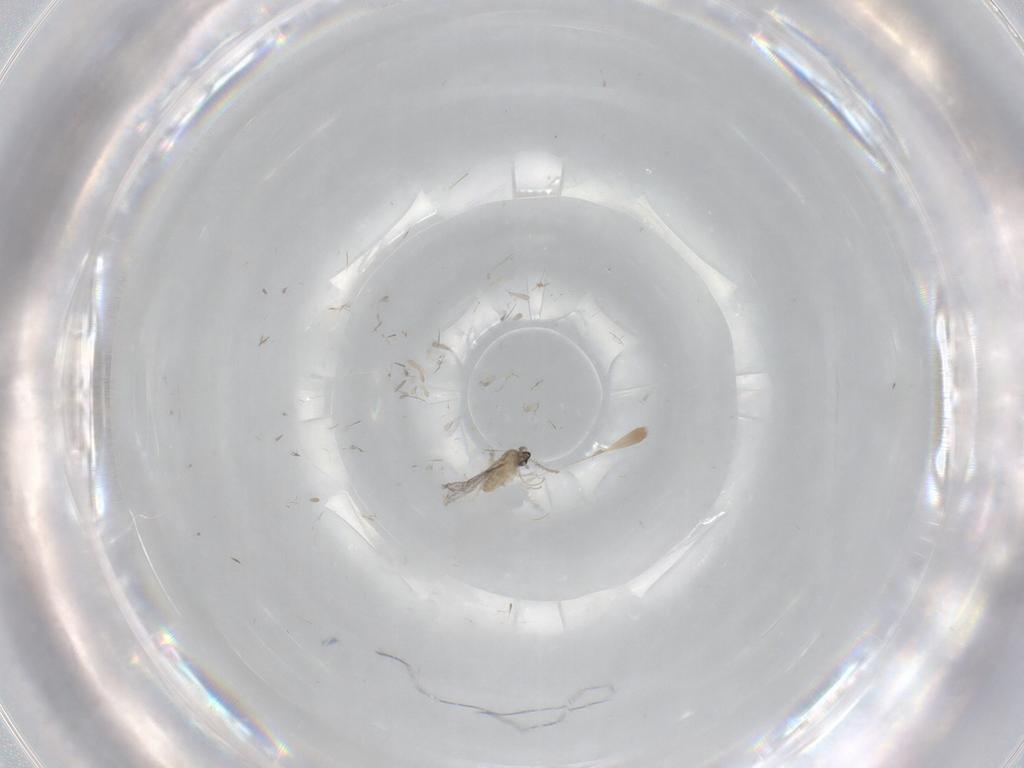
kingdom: Animalia
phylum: Arthropoda
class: Insecta
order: Diptera
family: Cecidomyiidae
